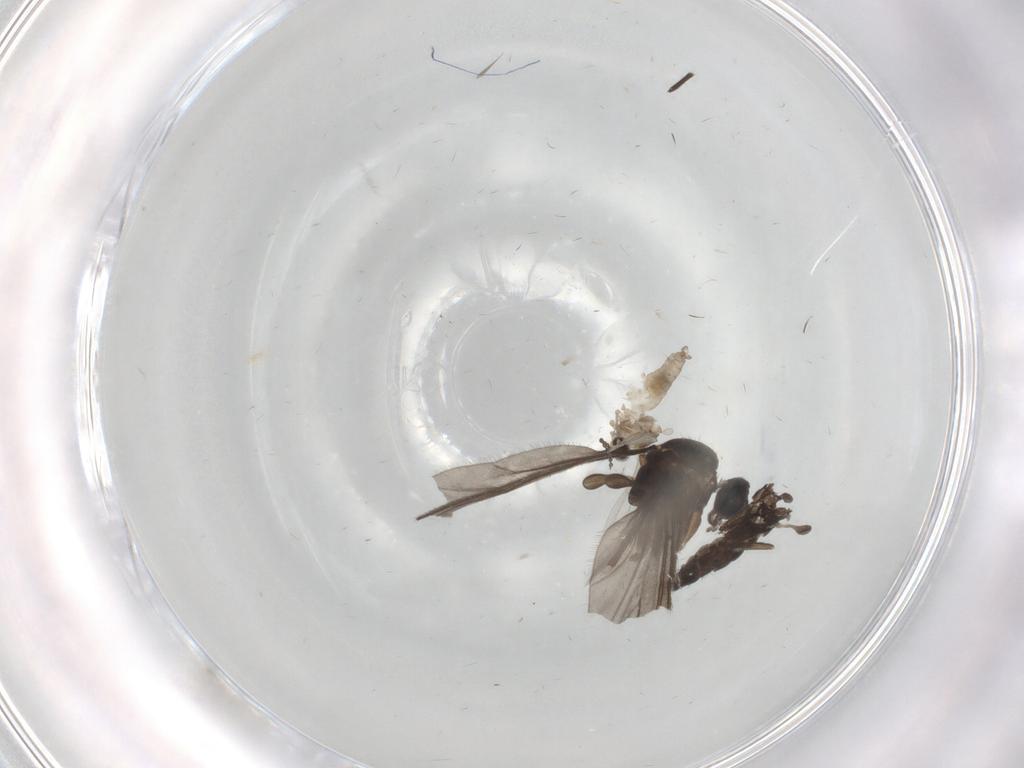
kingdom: Animalia
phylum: Arthropoda
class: Insecta
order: Diptera
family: Cecidomyiidae
